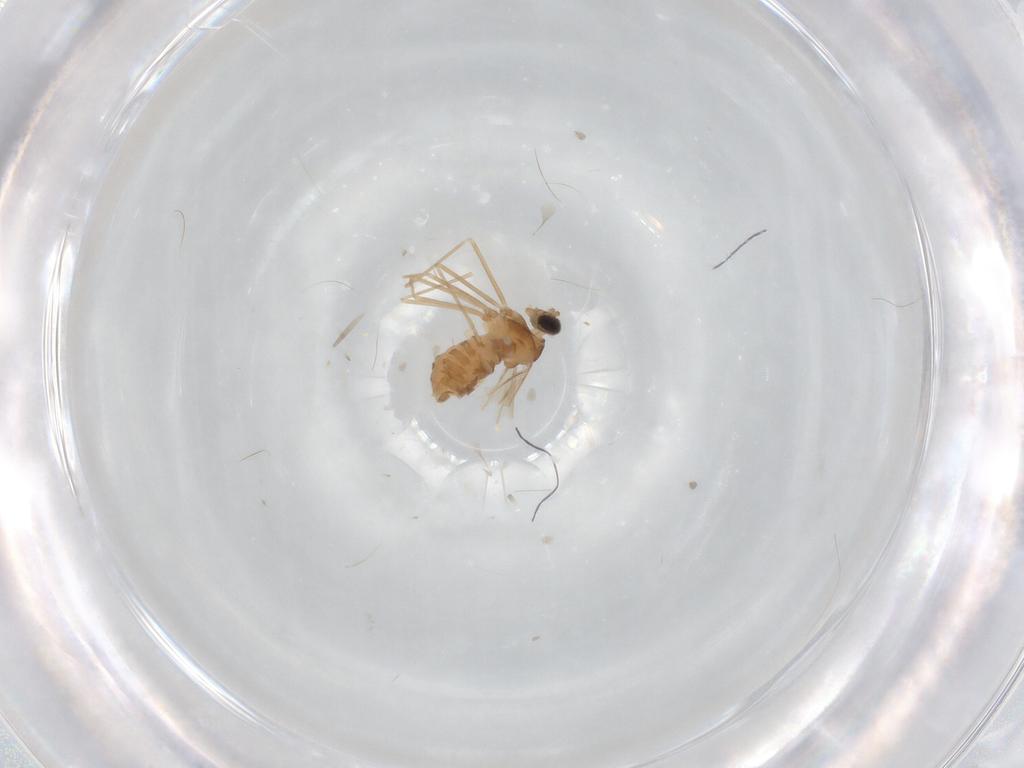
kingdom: Animalia
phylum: Arthropoda
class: Insecta
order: Diptera
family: Cecidomyiidae
